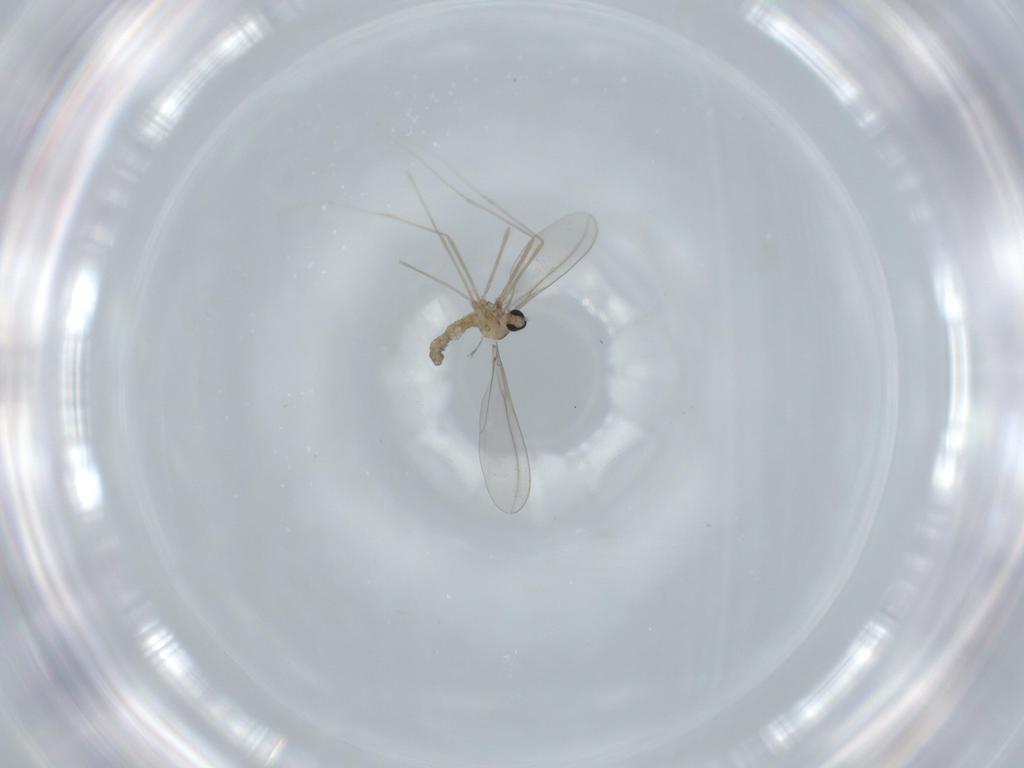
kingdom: Animalia
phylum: Arthropoda
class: Insecta
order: Diptera
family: Cecidomyiidae
